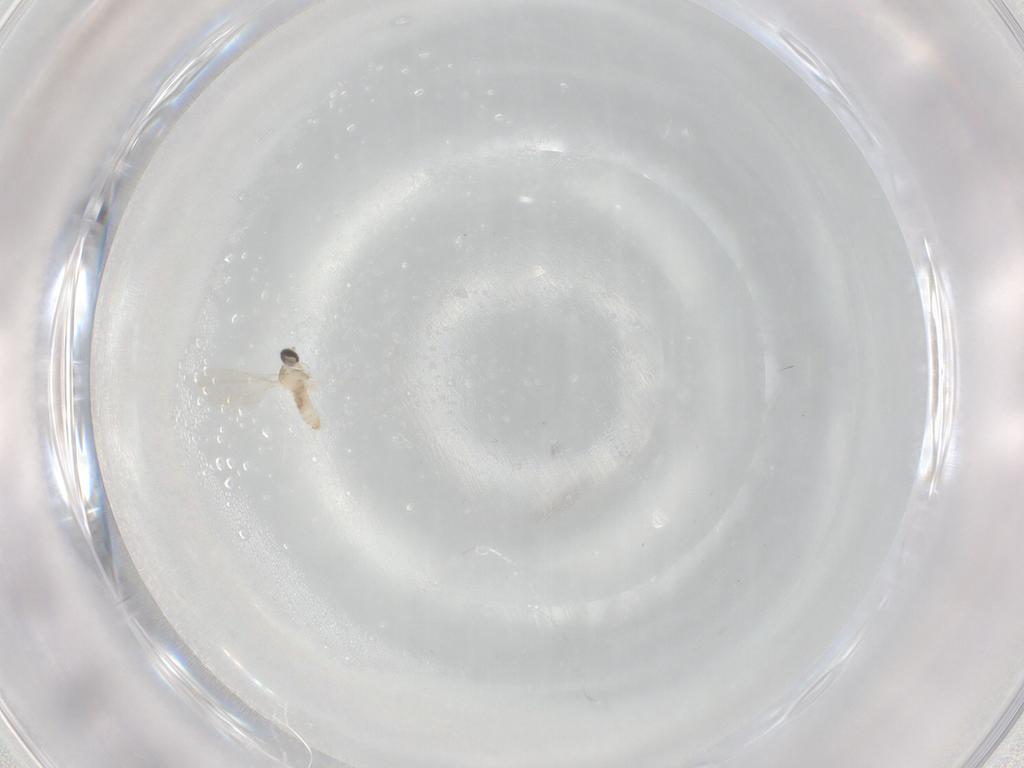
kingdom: Animalia
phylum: Arthropoda
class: Insecta
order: Diptera
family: Cecidomyiidae
